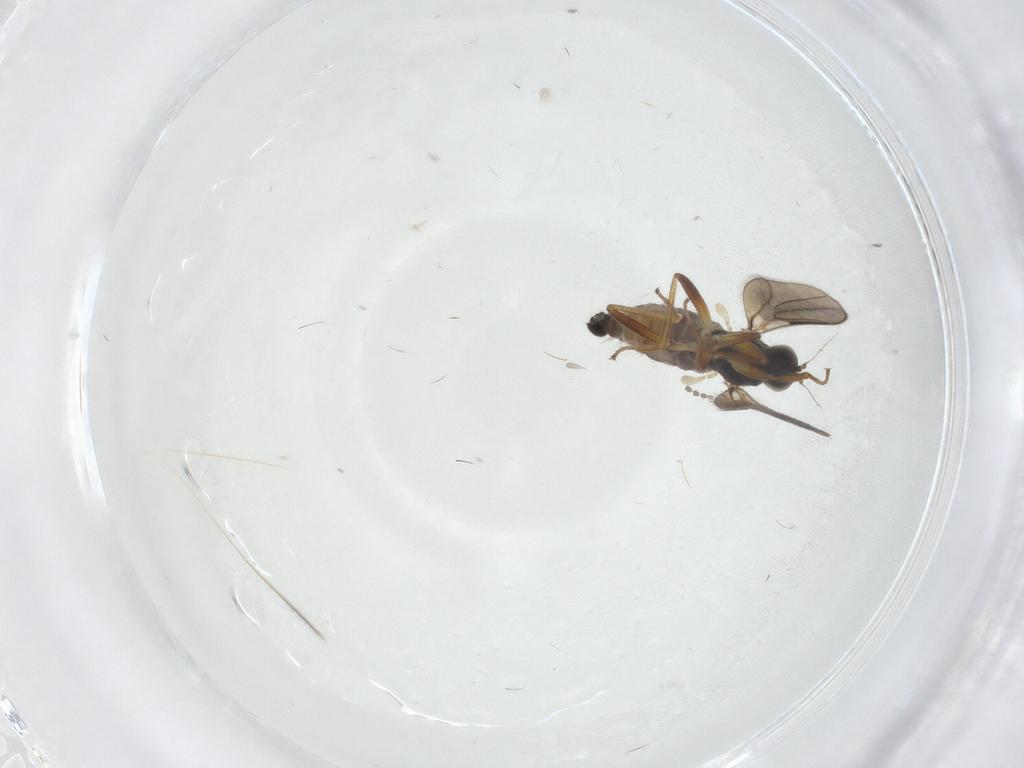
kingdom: Animalia
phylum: Arthropoda
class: Insecta
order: Diptera
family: Hybotidae
